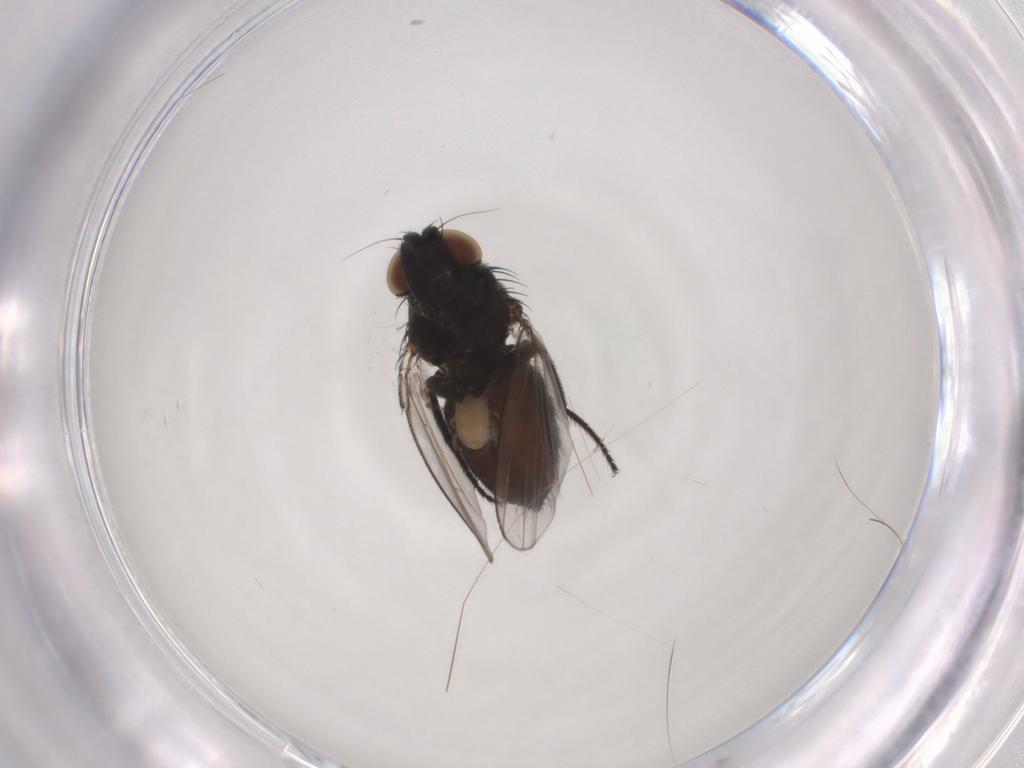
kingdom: Animalia
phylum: Arthropoda
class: Insecta
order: Diptera
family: Milichiidae
